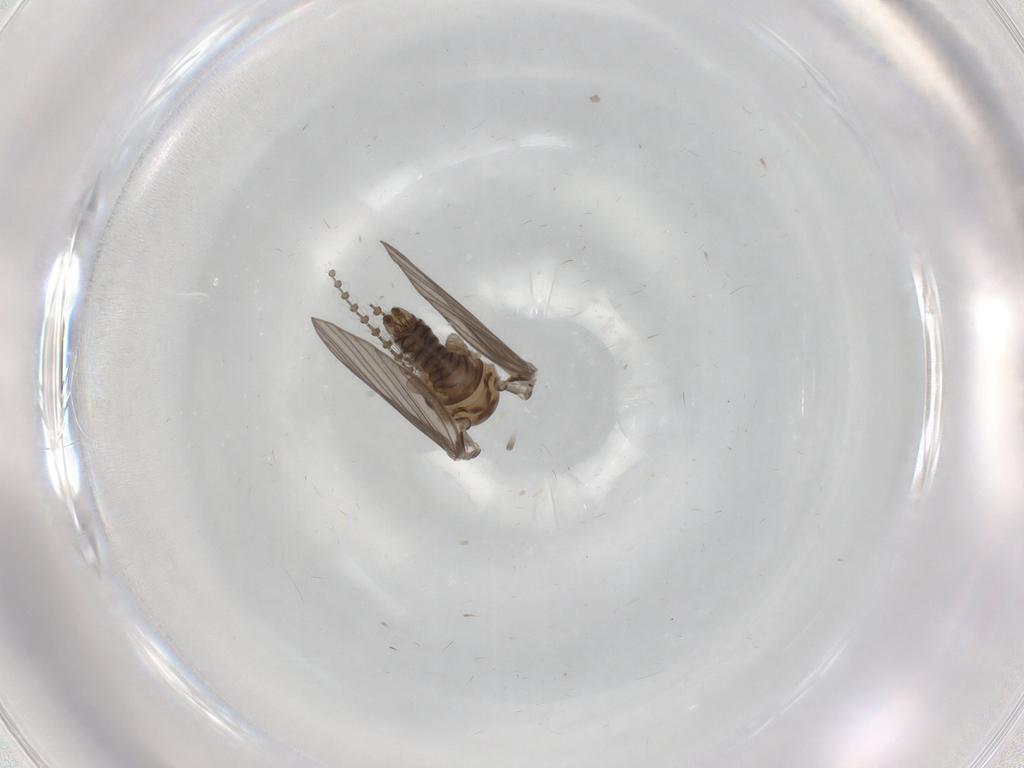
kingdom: Animalia
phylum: Arthropoda
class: Insecta
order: Diptera
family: Psychodidae
